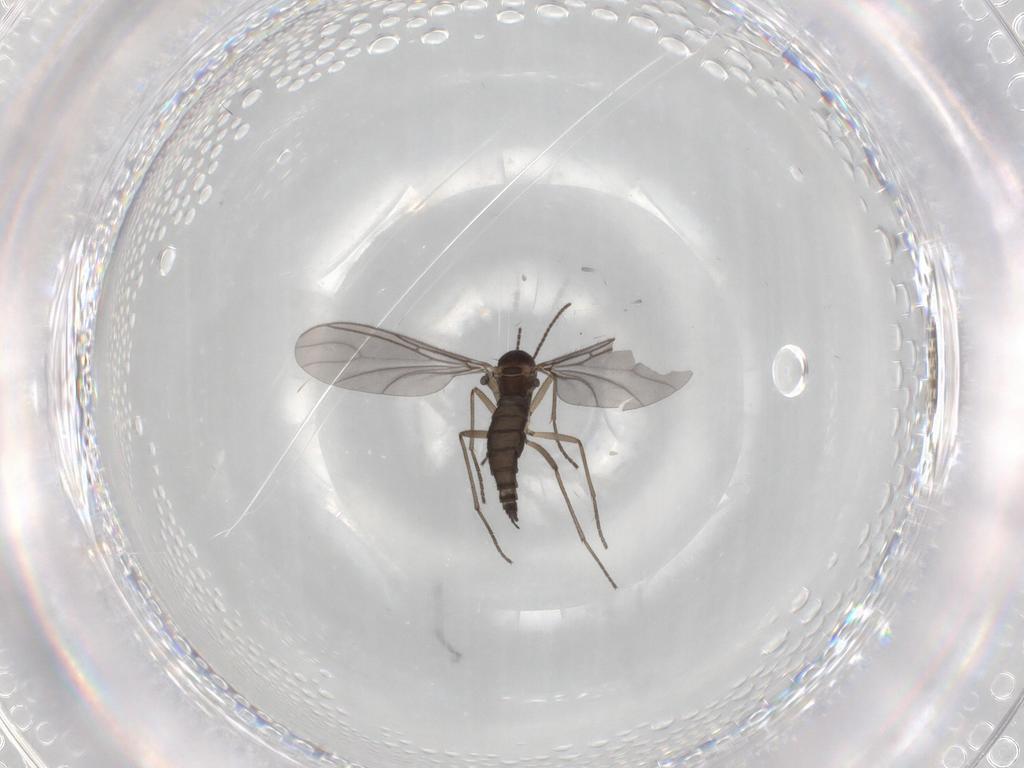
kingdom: Animalia
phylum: Arthropoda
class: Insecta
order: Diptera
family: Sciaridae
